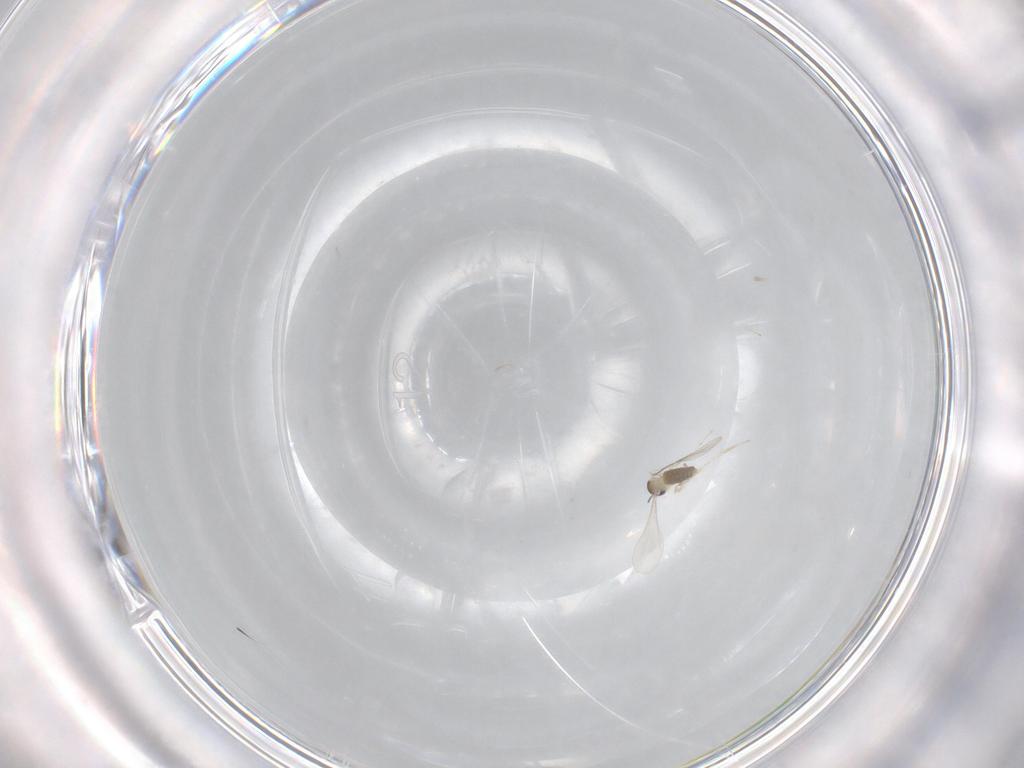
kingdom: Animalia
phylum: Arthropoda
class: Insecta
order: Diptera
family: Cecidomyiidae
